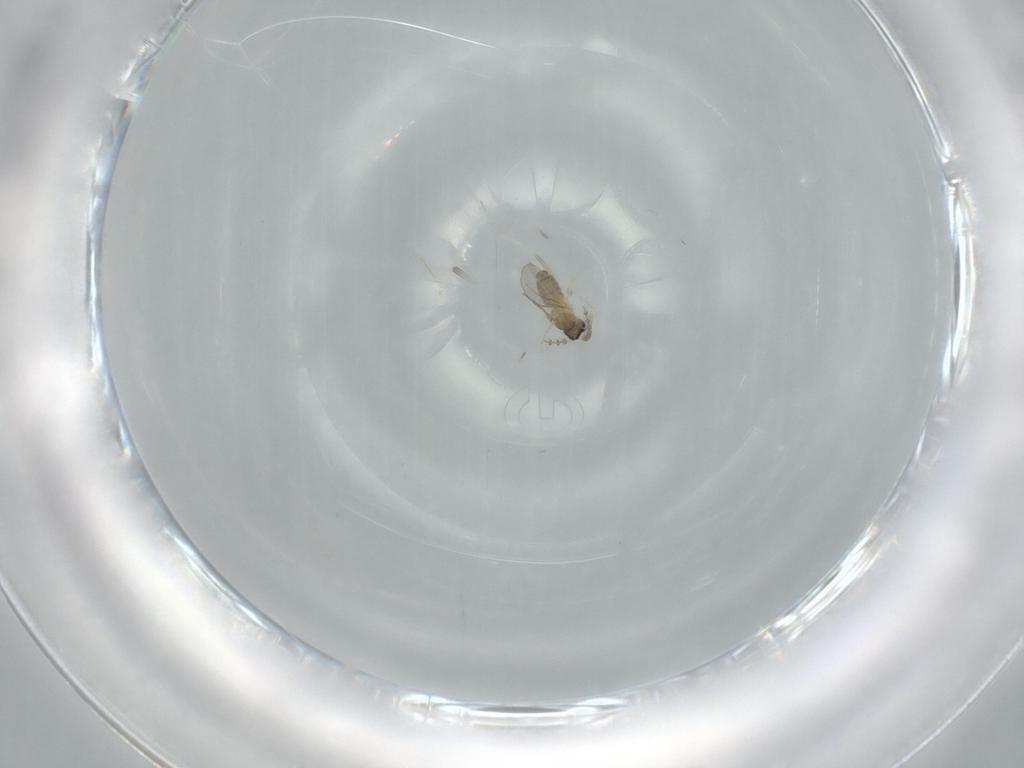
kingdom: Animalia
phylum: Arthropoda
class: Insecta
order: Diptera
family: Cecidomyiidae
